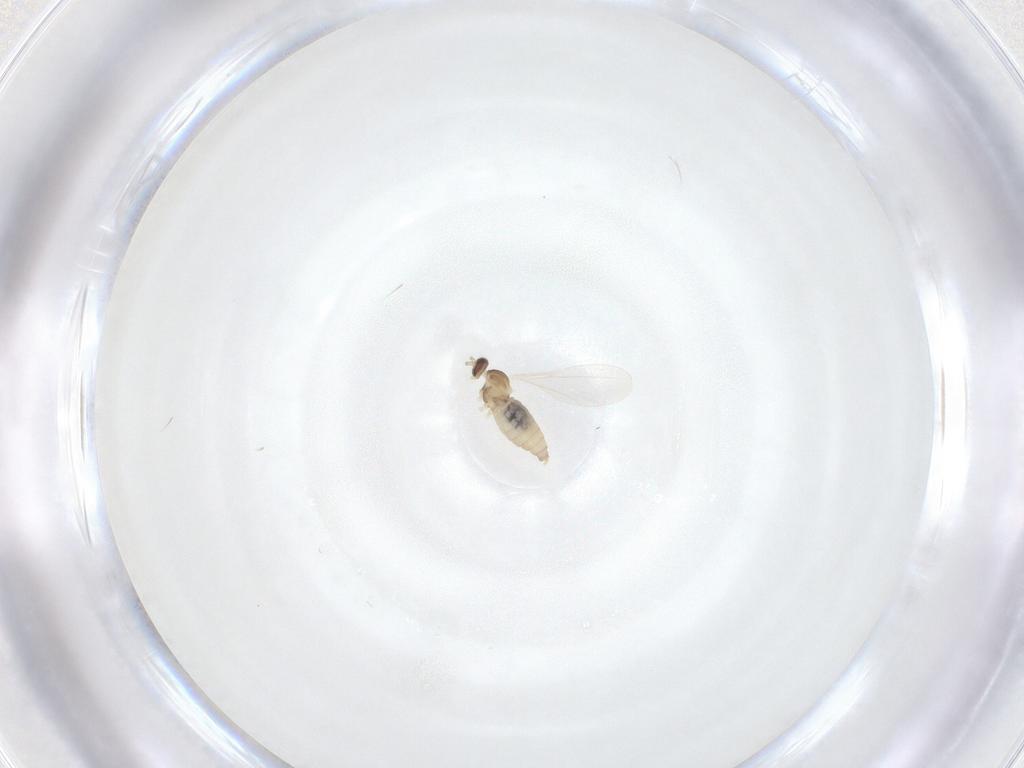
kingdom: Animalia
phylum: Arthropoda
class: Insecta
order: Diptera
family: Cecidomyiidae
